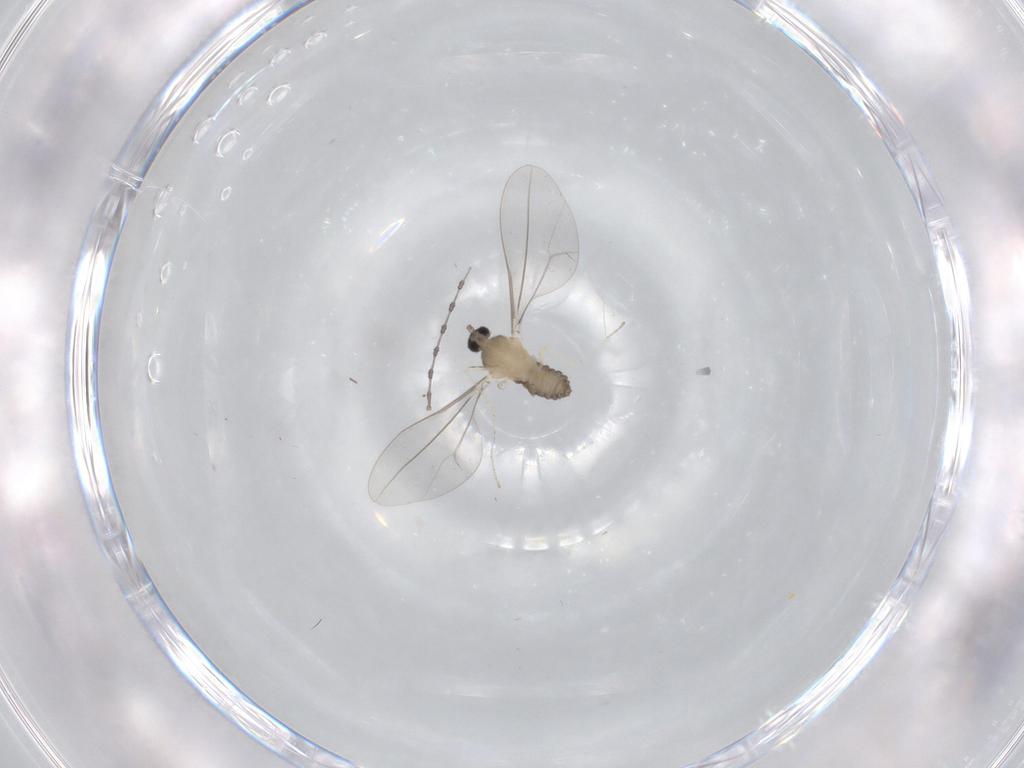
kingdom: Animalia
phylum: Arthropoda
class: Insecta
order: Diptera
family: Cecidomyiidae
